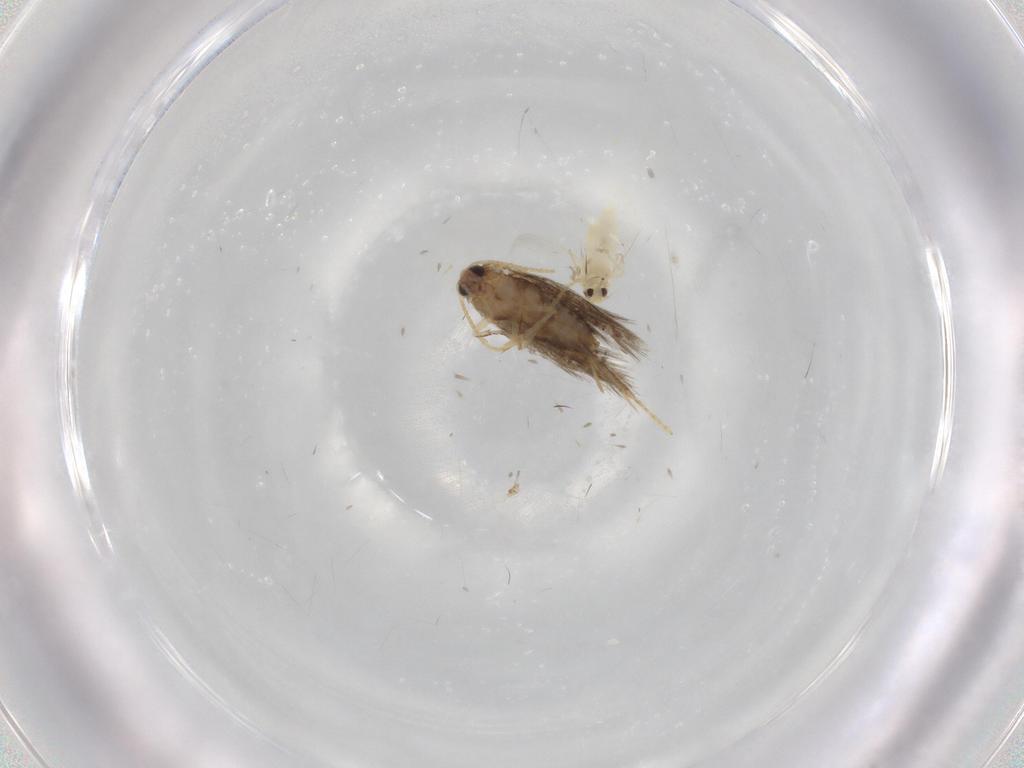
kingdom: Animalia
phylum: Arthropoda
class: Insecta
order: Lepidoptera
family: Copromorphidae
